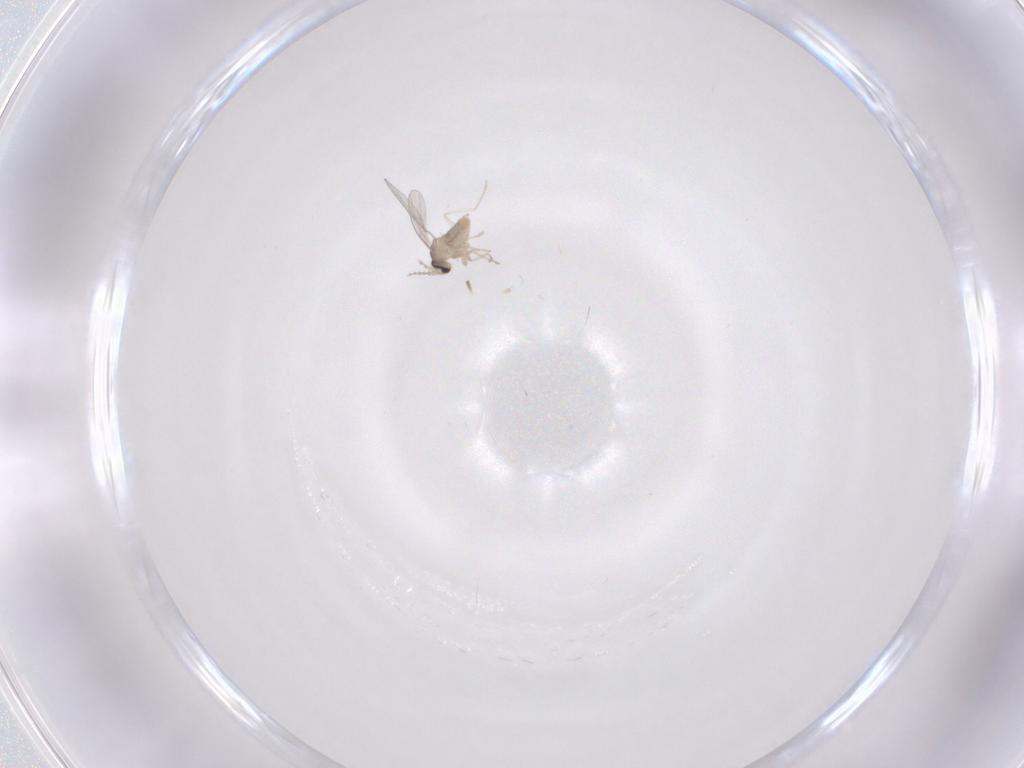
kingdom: Animalia
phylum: Arthropoda
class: Insecta
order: Diptera
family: Cecidomyiidae
